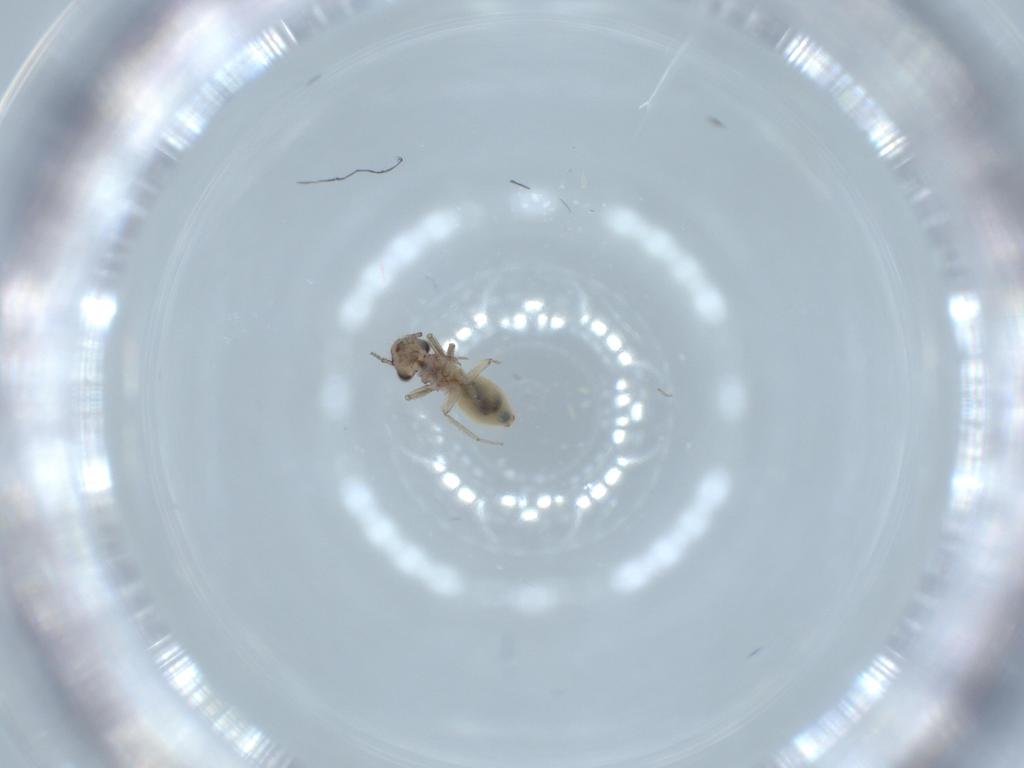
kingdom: Animalia
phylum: Arthropoda
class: Insecta
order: Psocodea
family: Lepidopsocidae
